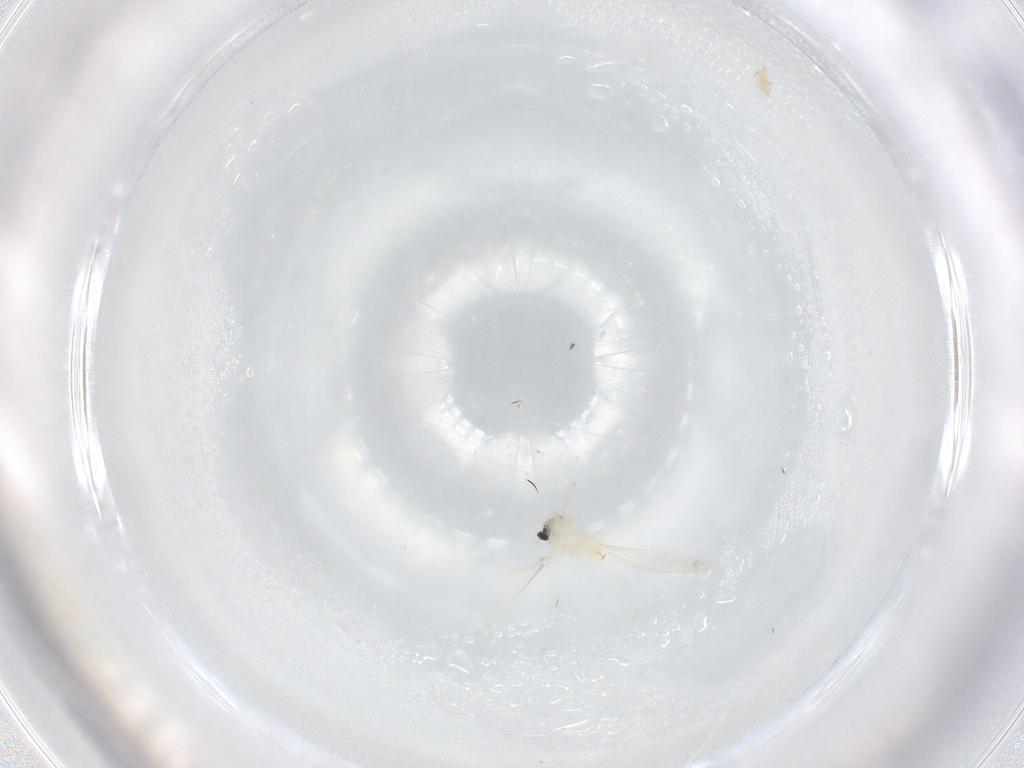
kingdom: Animalia
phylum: Arthropoda
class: Insecta
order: Diptera
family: Cecidomyiidae
